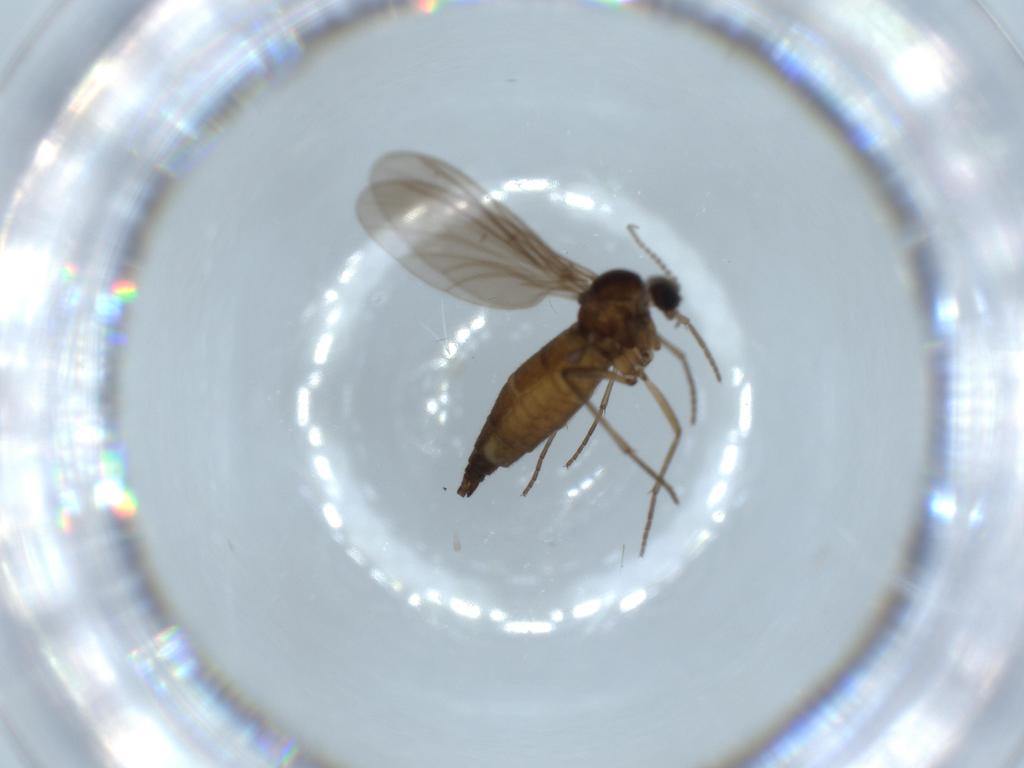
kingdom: Animalia
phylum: Arthropoda
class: Insecta
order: Diptera
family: Sciaridae
